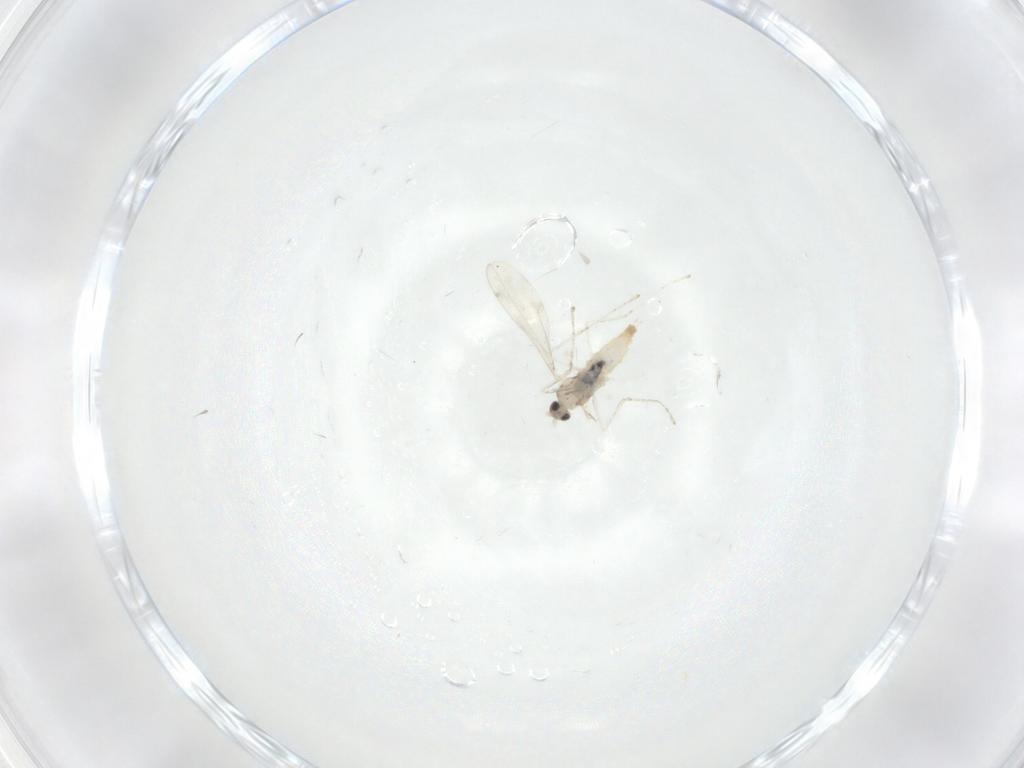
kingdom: Animalia
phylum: Arthropoda
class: Insecta
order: Diptera
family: Cecidomyiidae
